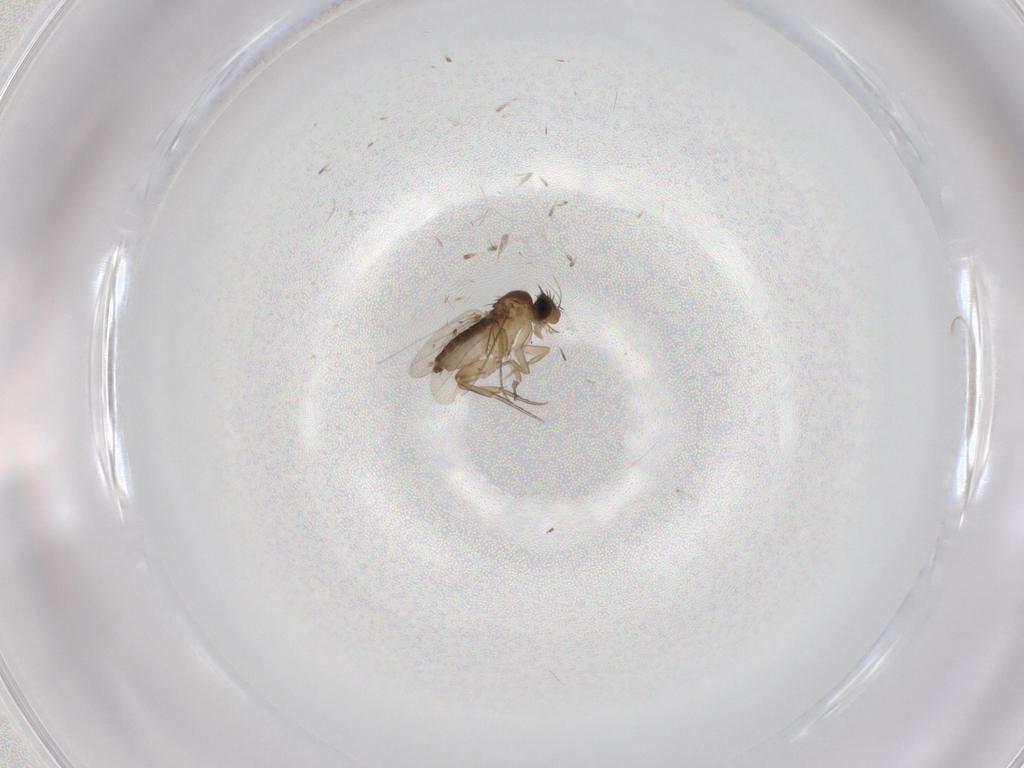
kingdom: Animalia
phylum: Arthropoda
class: Insecta
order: Diptera
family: Phoridae
